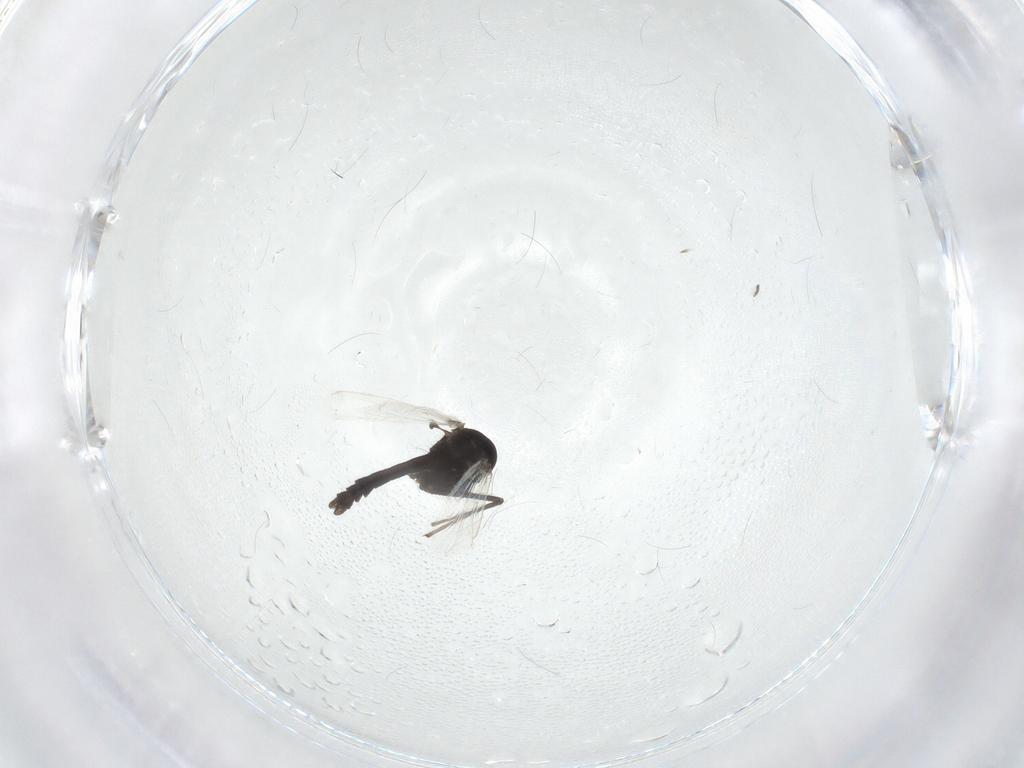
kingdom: Animalia
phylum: Arthropoda
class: Insecta
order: Diptera
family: Chironomidae
